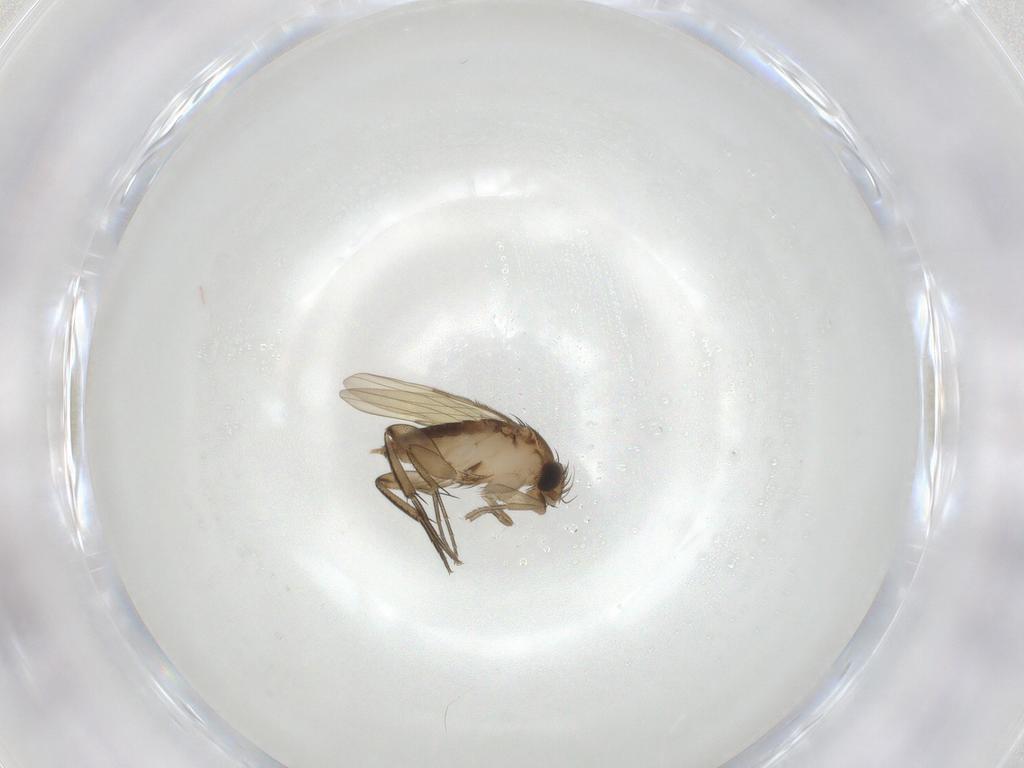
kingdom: Animalia
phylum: Arthropoda
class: Insecta
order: Diptera
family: Phoridae
